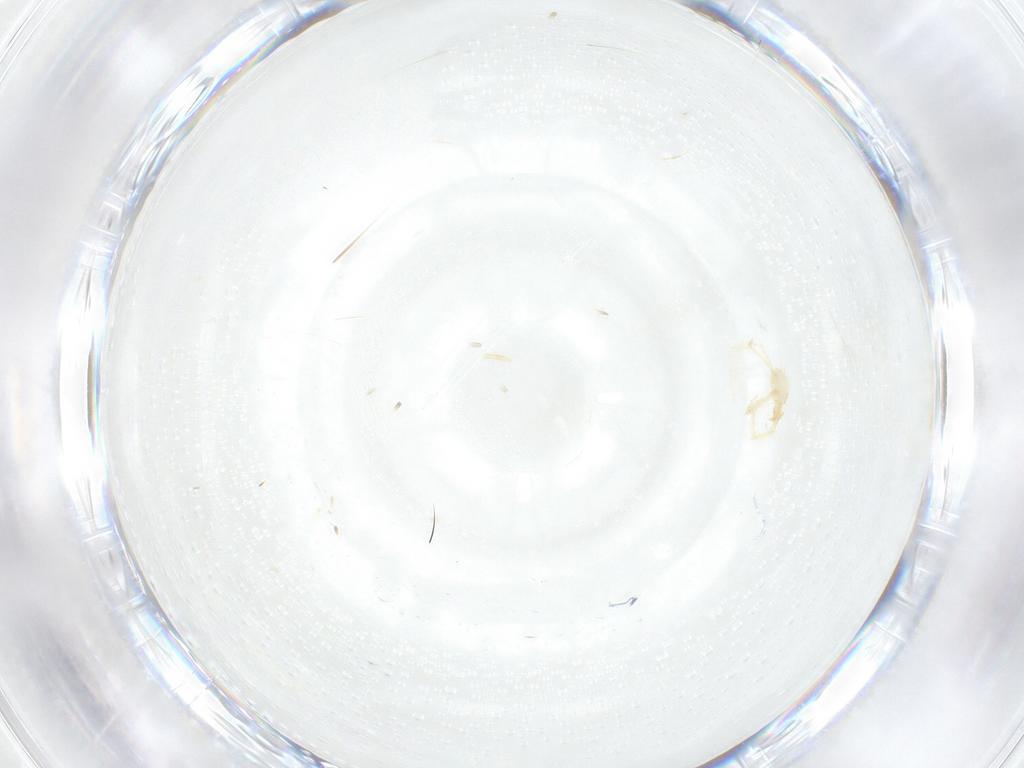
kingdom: Animalia
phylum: Arthropoda
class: Arachnida
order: Trombidiformes
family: Erythraeidae
